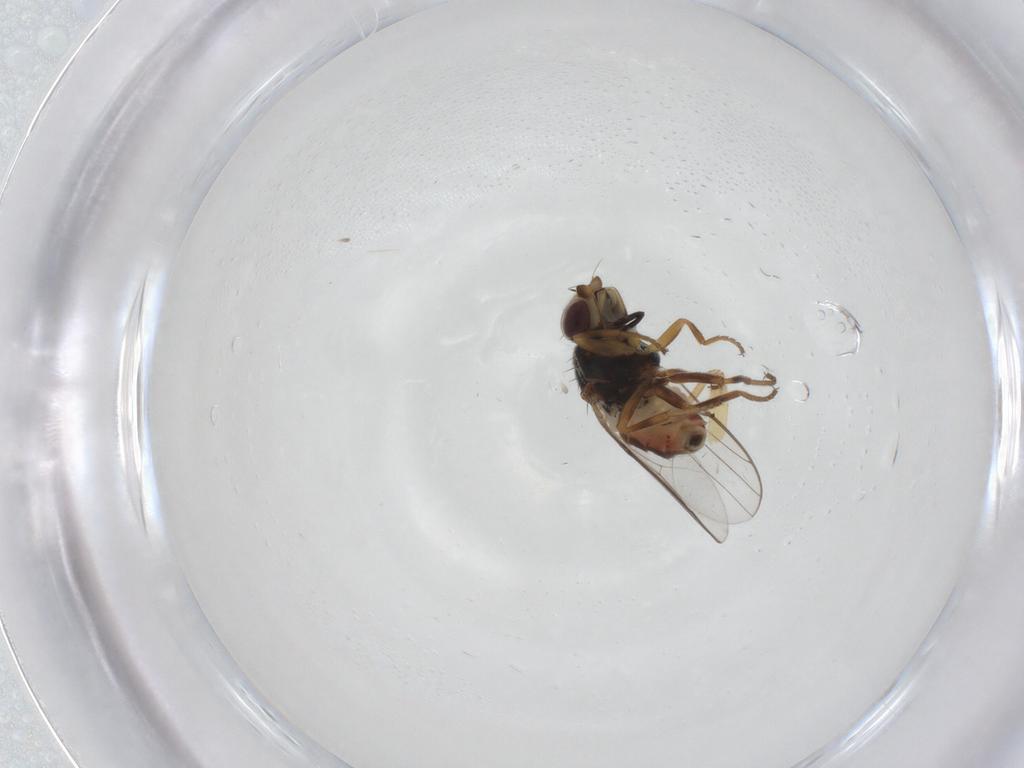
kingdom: Animalia
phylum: Arthropoda
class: Insecta
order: Diptera
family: Chloropidae
